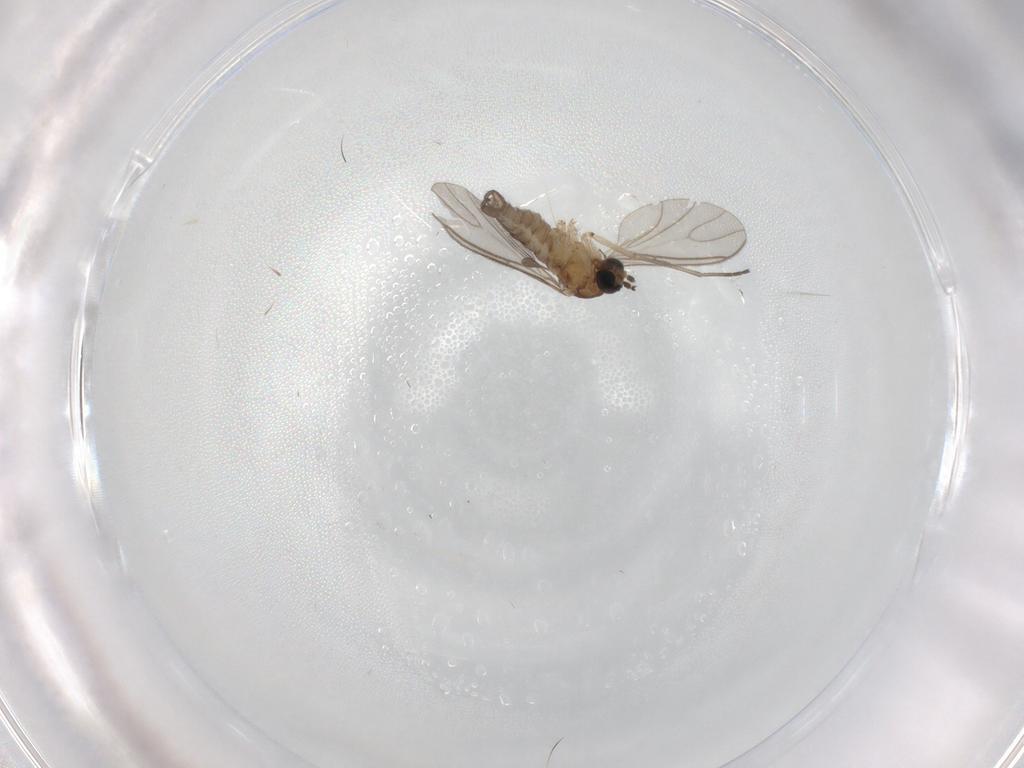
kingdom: Animalia
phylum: Arthropoda
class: Insecta
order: Diptera
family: Sciaridae
